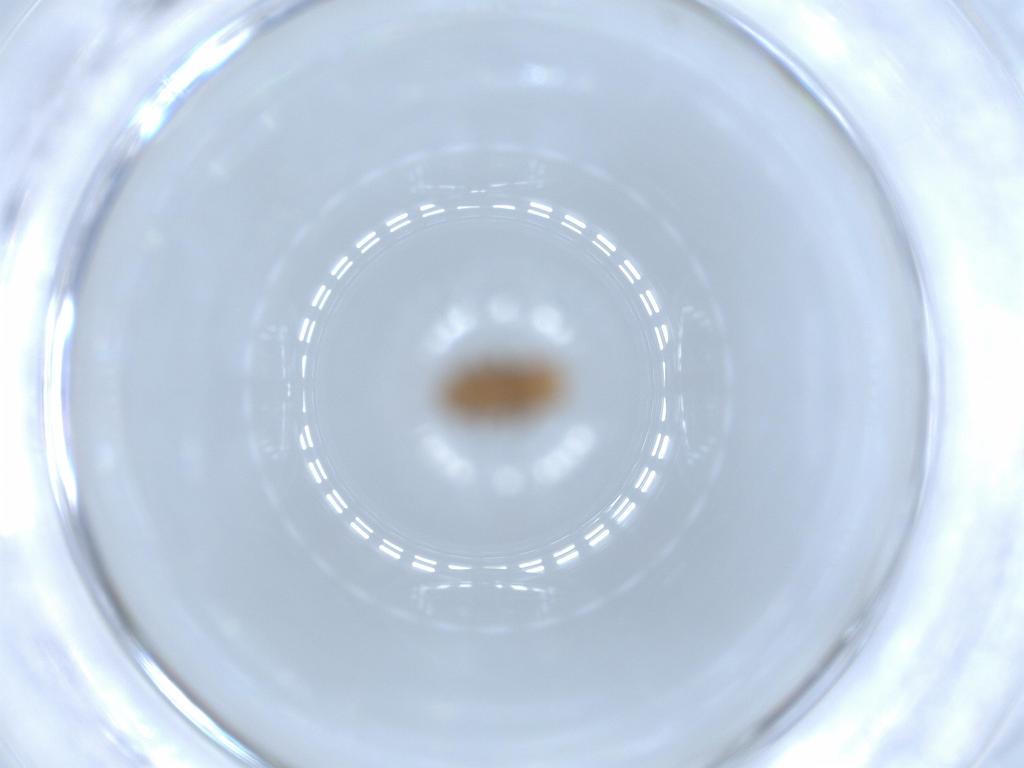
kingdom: Animalia
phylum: Arthropoda
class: Insecta
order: Coleoptera
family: Coccinellidae
